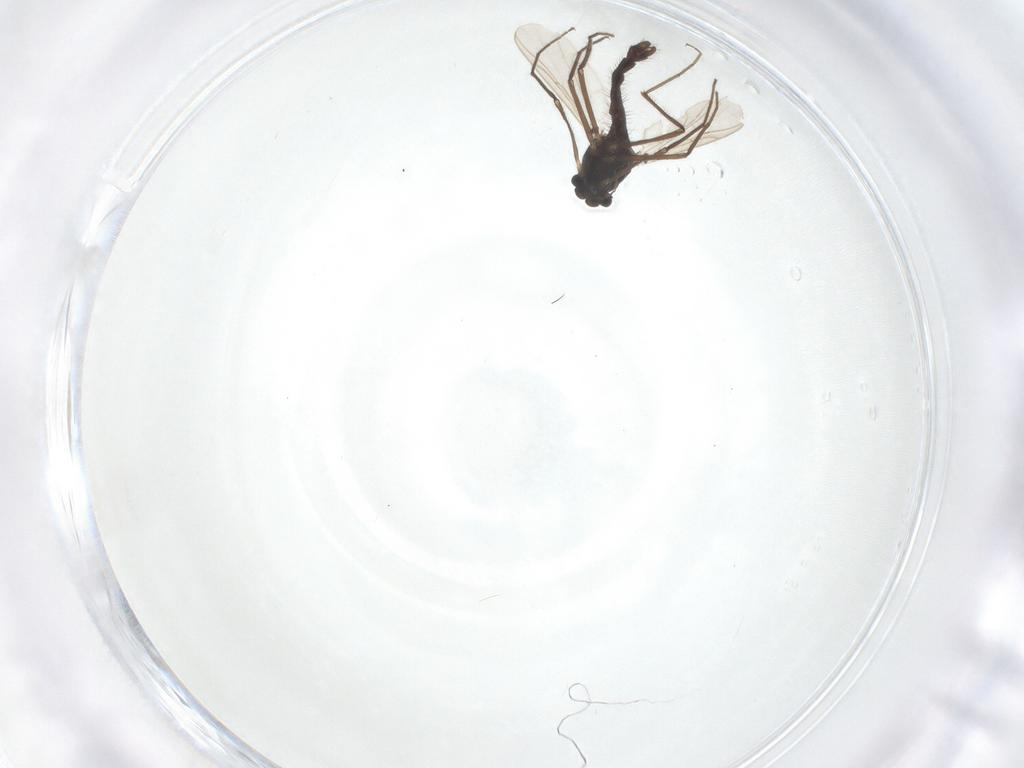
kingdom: Animalia
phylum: Arthropoda
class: Insecta
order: Diptera
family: Chironomidae
